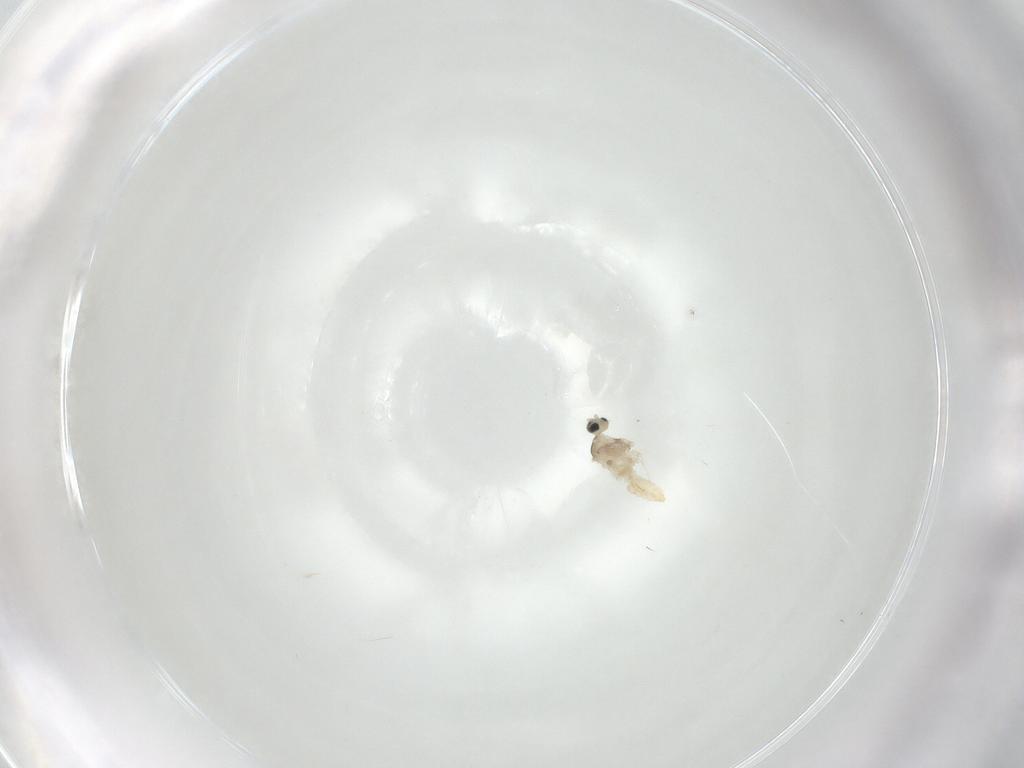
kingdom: Animalia
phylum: Arthropoda
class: Insecta
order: Diptera
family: Cecidomyiidae
